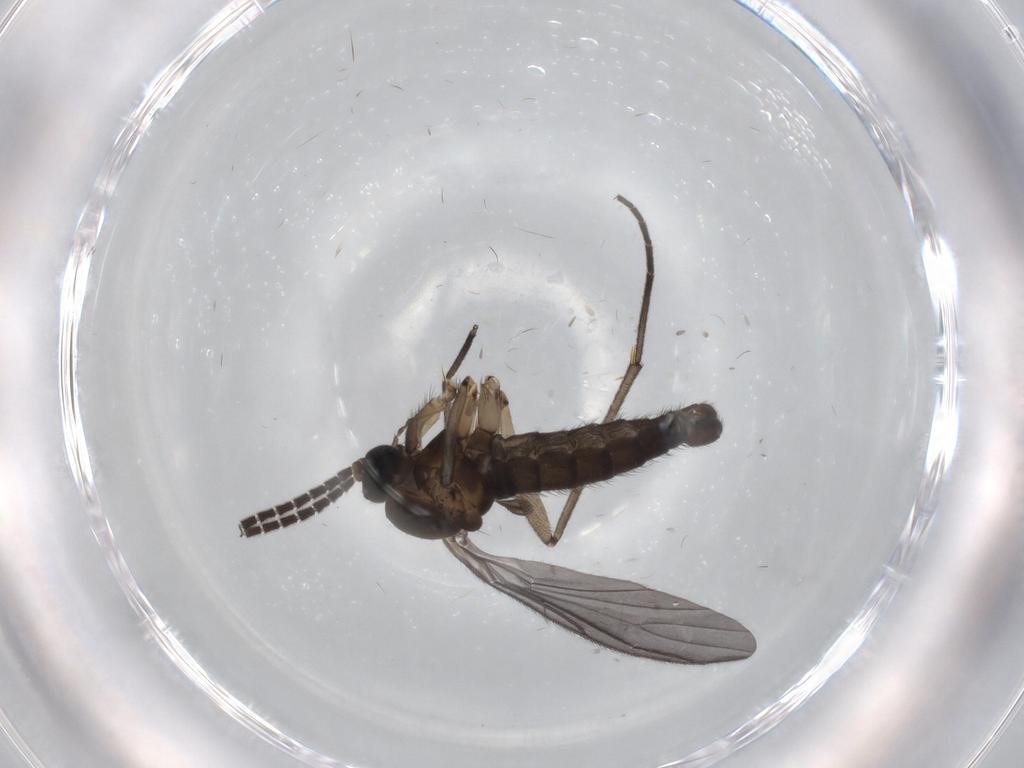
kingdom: Animalia
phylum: Arthropoda
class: Insecta
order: Diptera
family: Sciaridae
